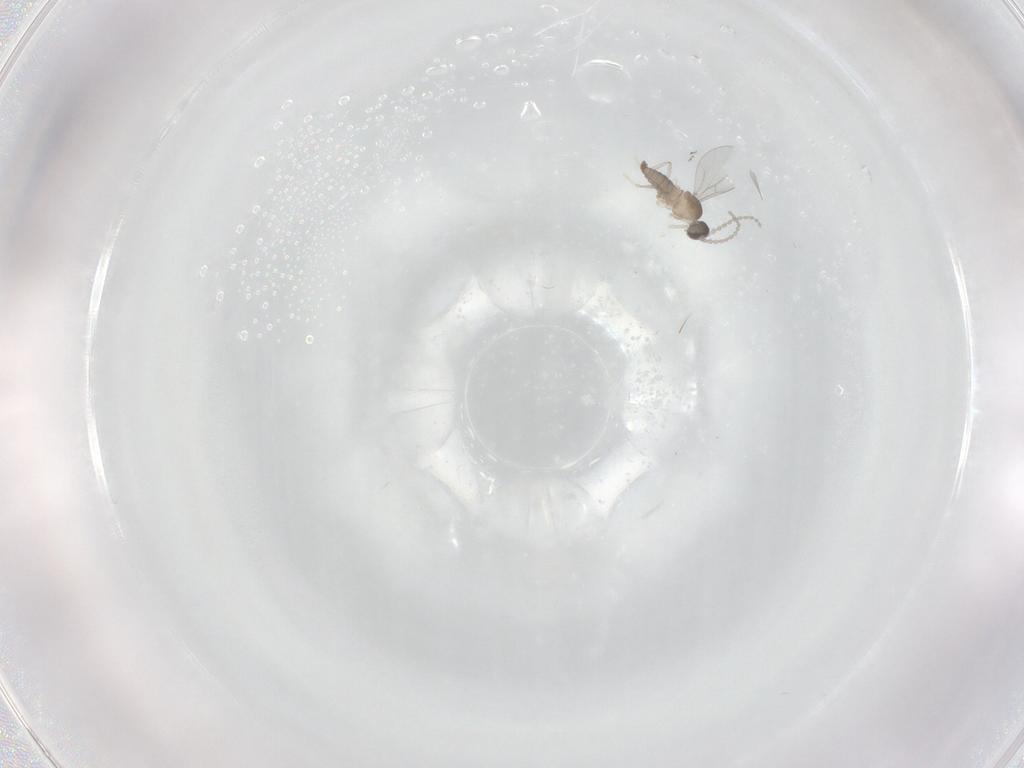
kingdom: Animalia
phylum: Arthropoda
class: Insecta
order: Diptera
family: Cecidomyiidae
